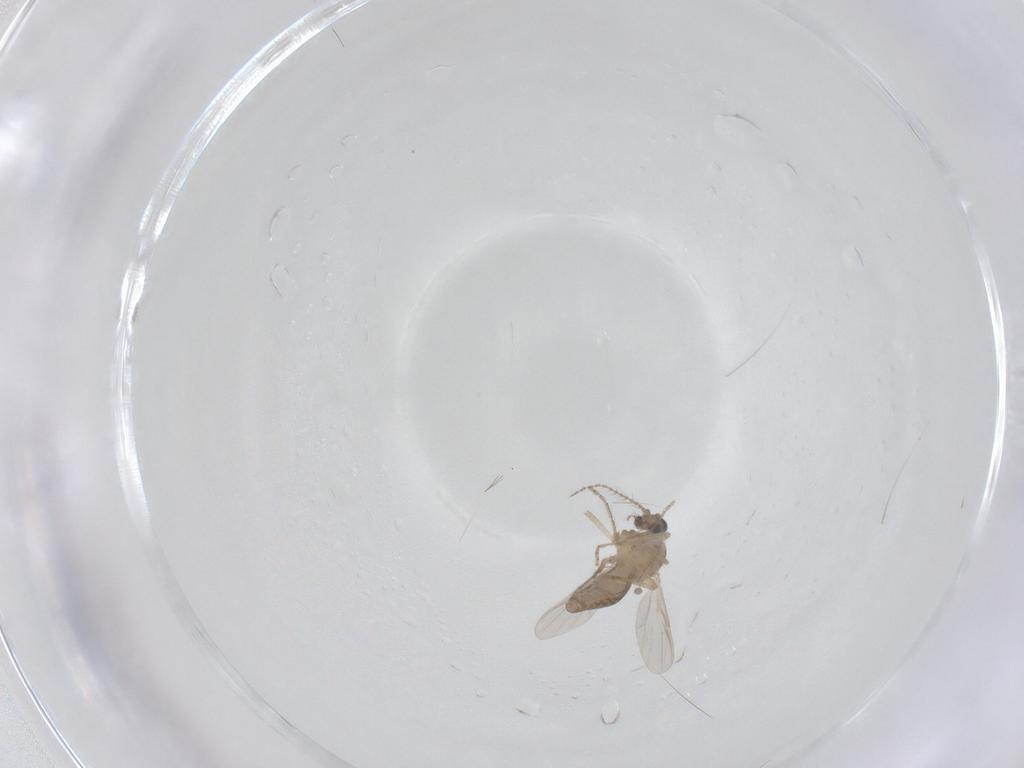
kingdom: Animalia
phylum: Arthropoda
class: Insecta
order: Diptera
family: Ceratopogonidae
